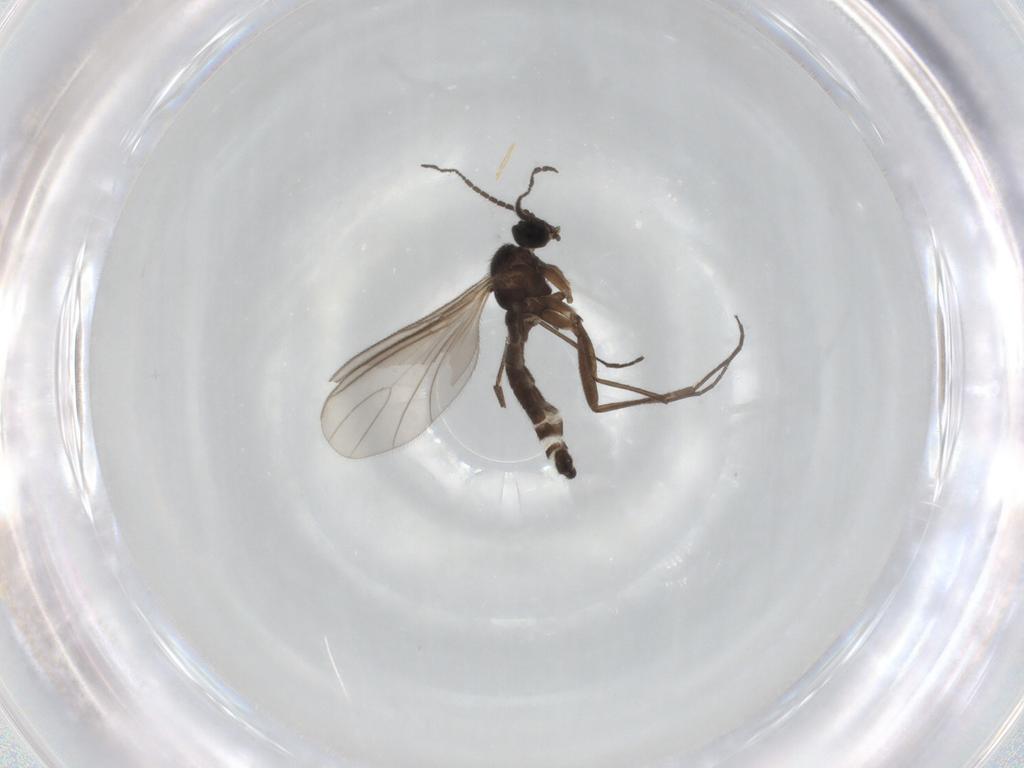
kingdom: Animalia
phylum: Arthropoda
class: Insecta
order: Diptera
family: Sciaridae
